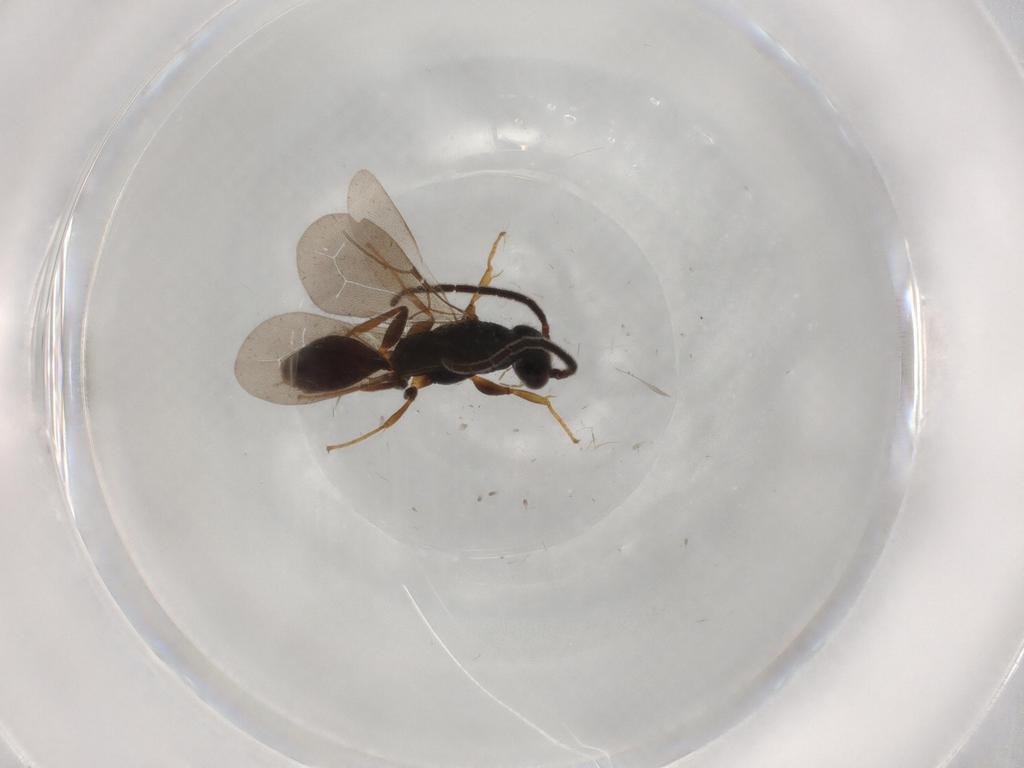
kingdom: Animalia
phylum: Arthropoda
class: Insecta
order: Hymenoptera
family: Bethylidae
